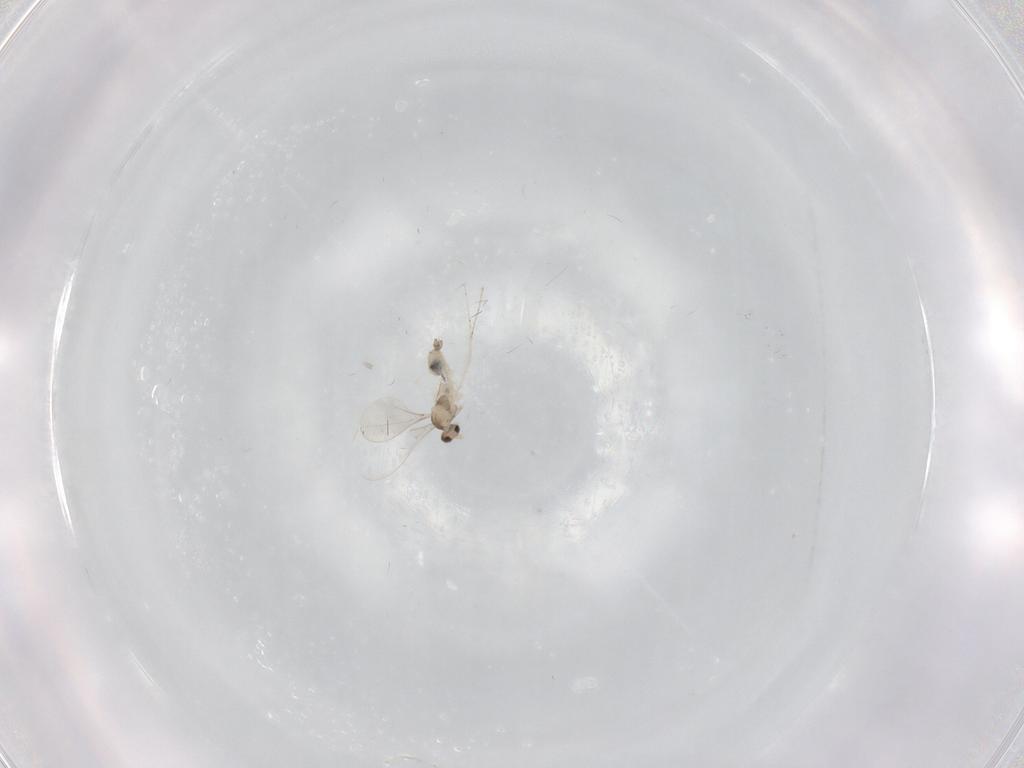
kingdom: Animalia
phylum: Arthropoda
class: Insecta
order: Diptera
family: Cecidomyiidae
